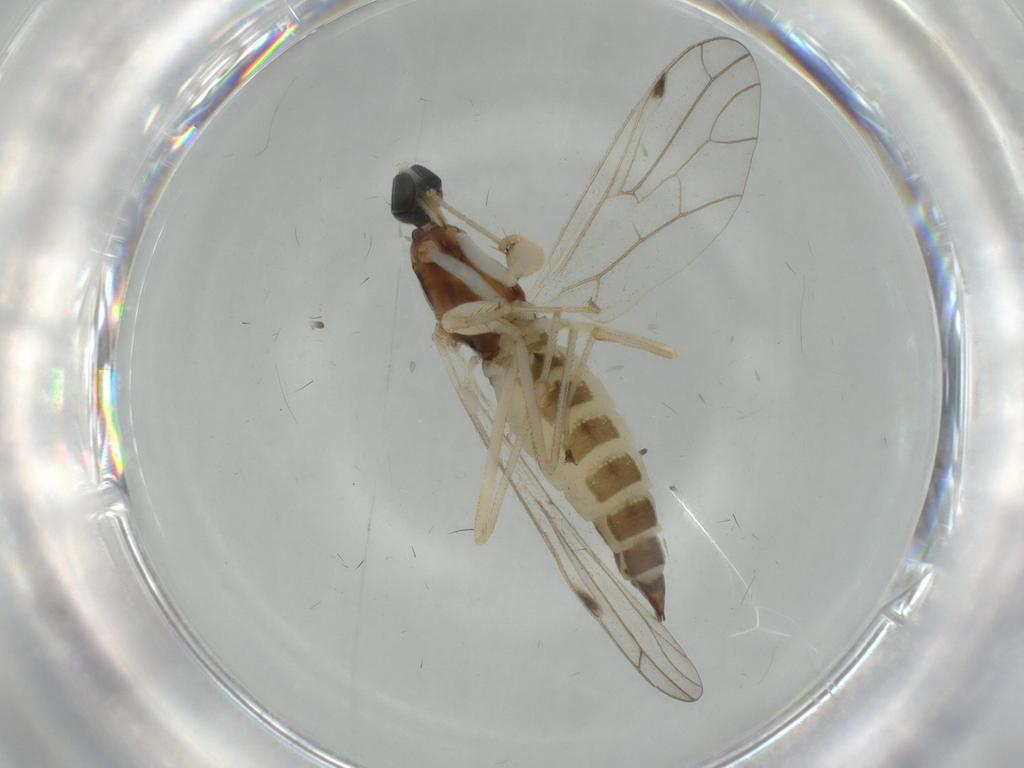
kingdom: Animalia
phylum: Arthropoda
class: Insecta
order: Diptera
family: Empididae
